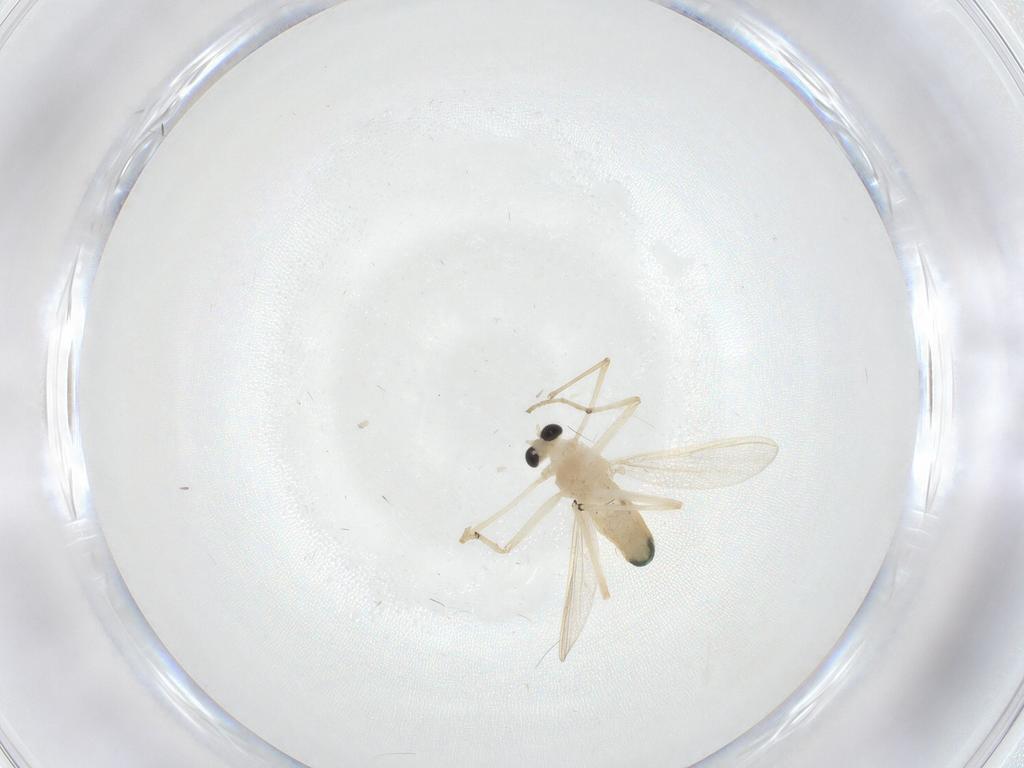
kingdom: Animalia
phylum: Arthropoda
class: Insecta
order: Diptera
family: Chironomidae
